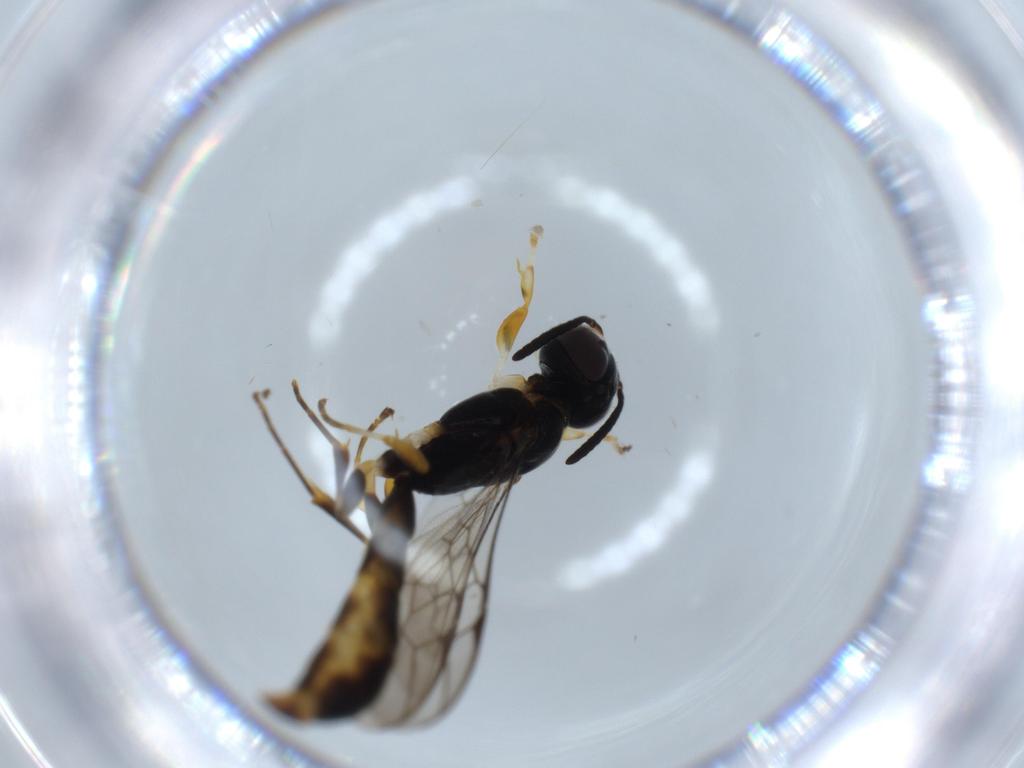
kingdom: Animalia
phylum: Arthropoda
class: Insecta
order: Hymenoptera
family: Crabronidae
